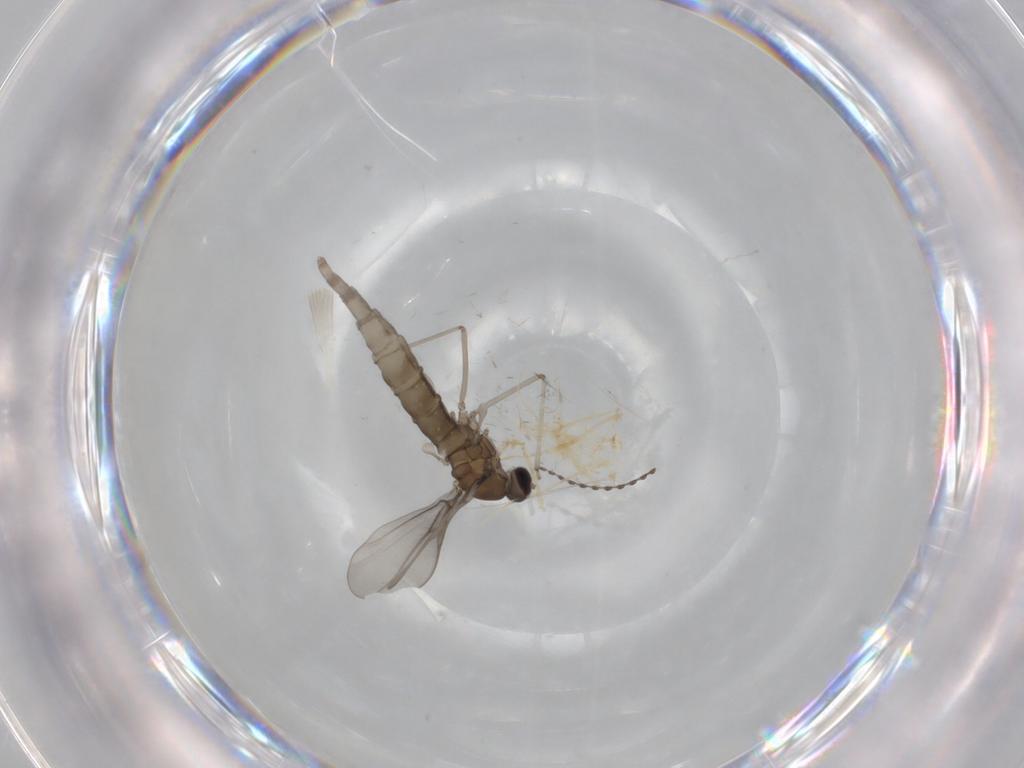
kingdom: Animalia
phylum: Arthropoda
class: Insecta
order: Diptera
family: Phoridae
